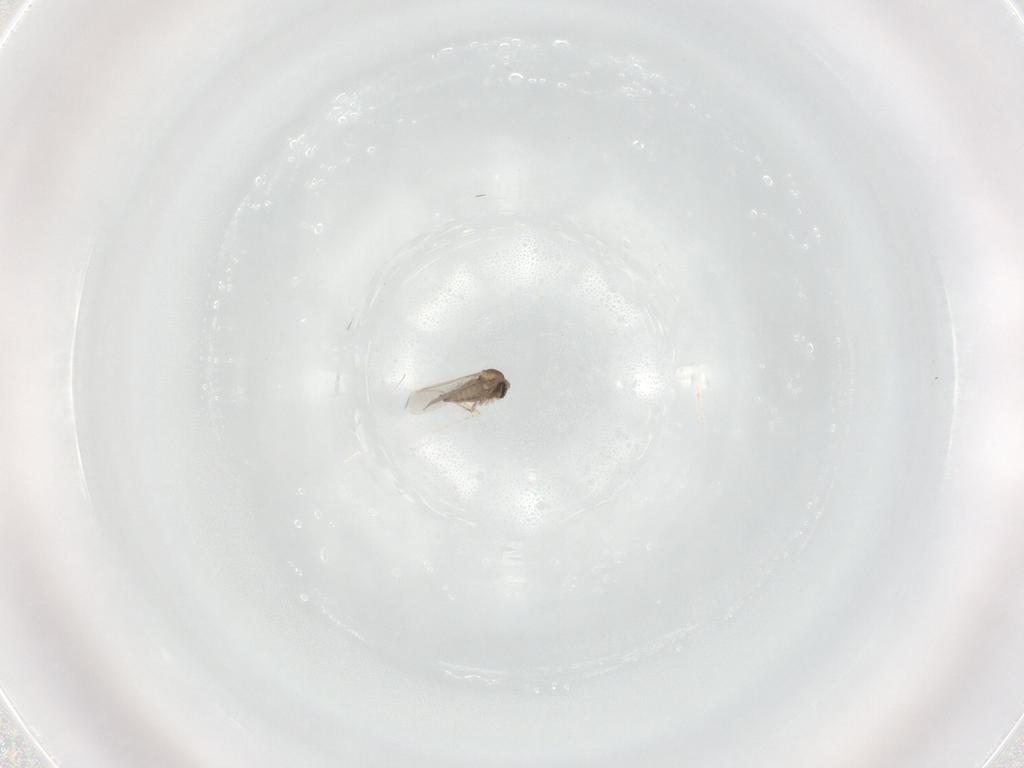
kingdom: Animalia
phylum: Arthropoda
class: Insecta
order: Diptera
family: Cecidomyiidae
